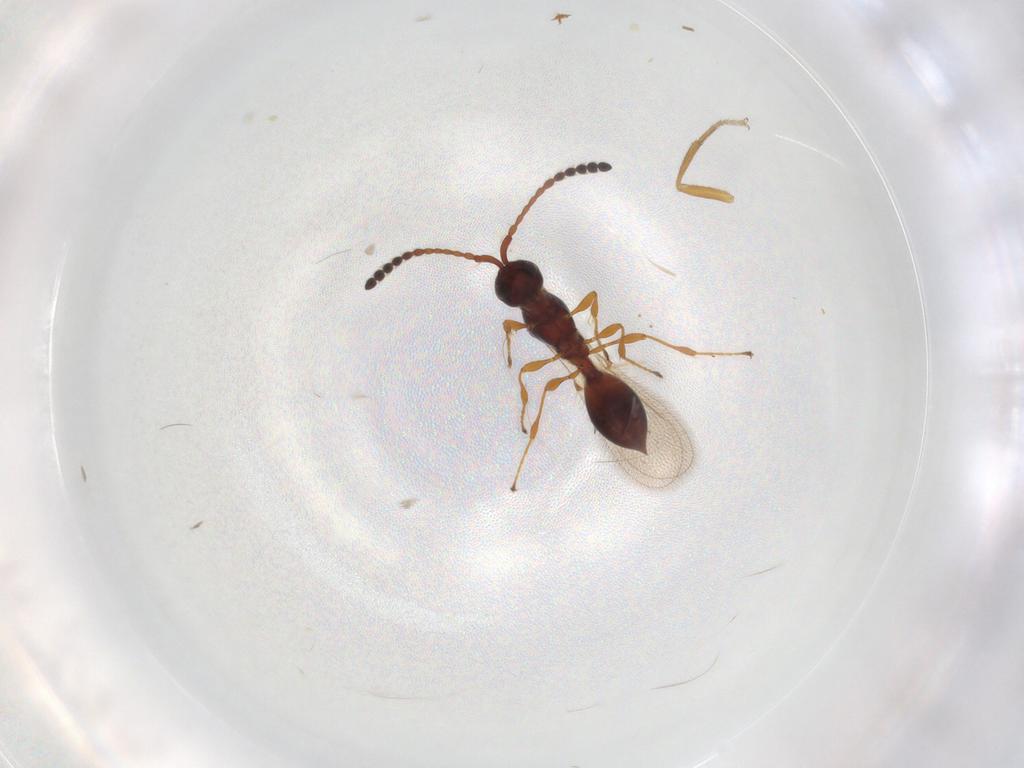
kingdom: Animalia
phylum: Arthropoda
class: Insecta
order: Hymenoptera
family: Diapriidae
